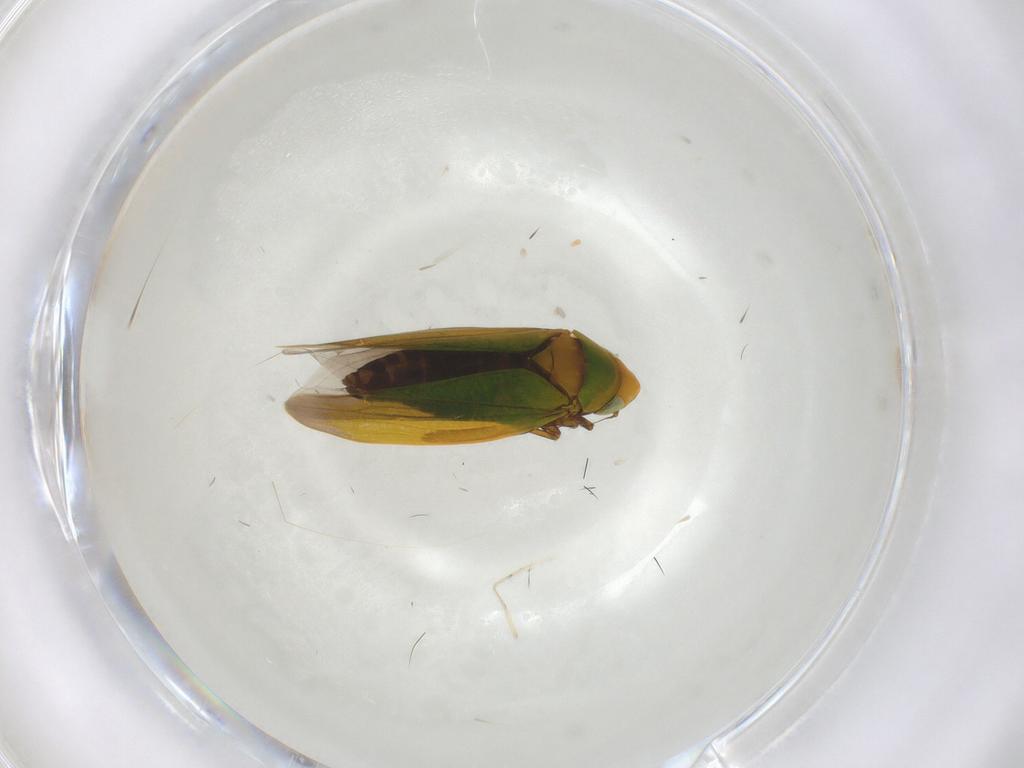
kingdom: Animalia
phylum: Arthropoda
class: Insecta
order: Hemiptera
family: Cicadellidae
